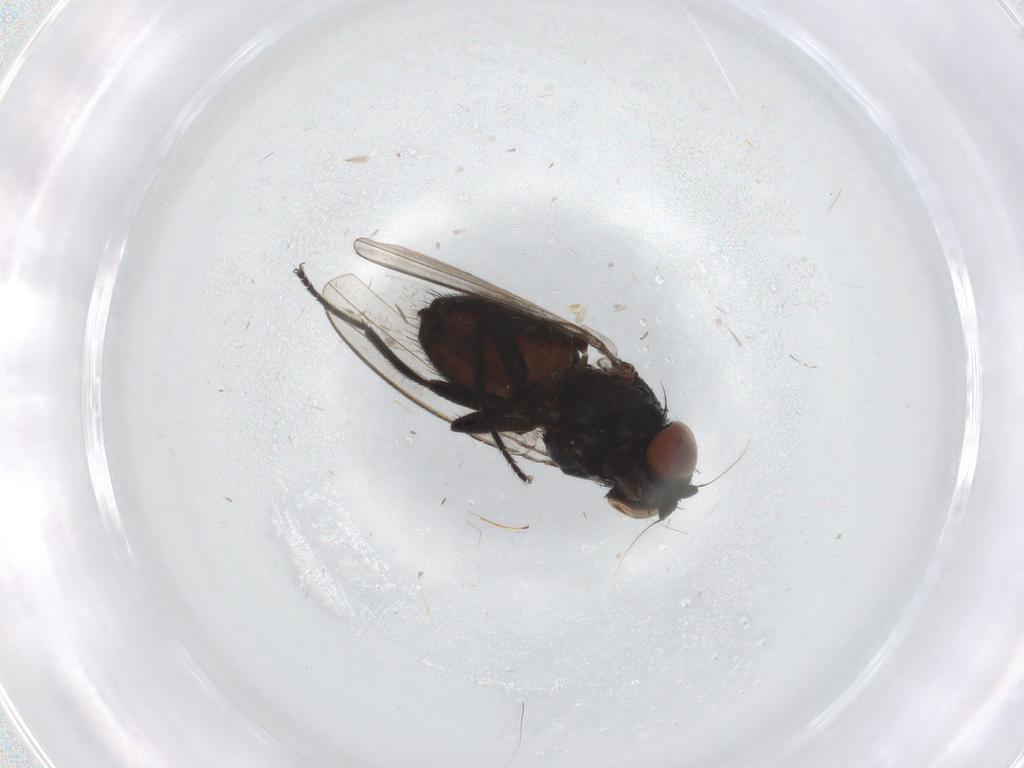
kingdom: Animalia
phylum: Arthropoda
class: Insecta
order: Diptera
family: Milichiidae
